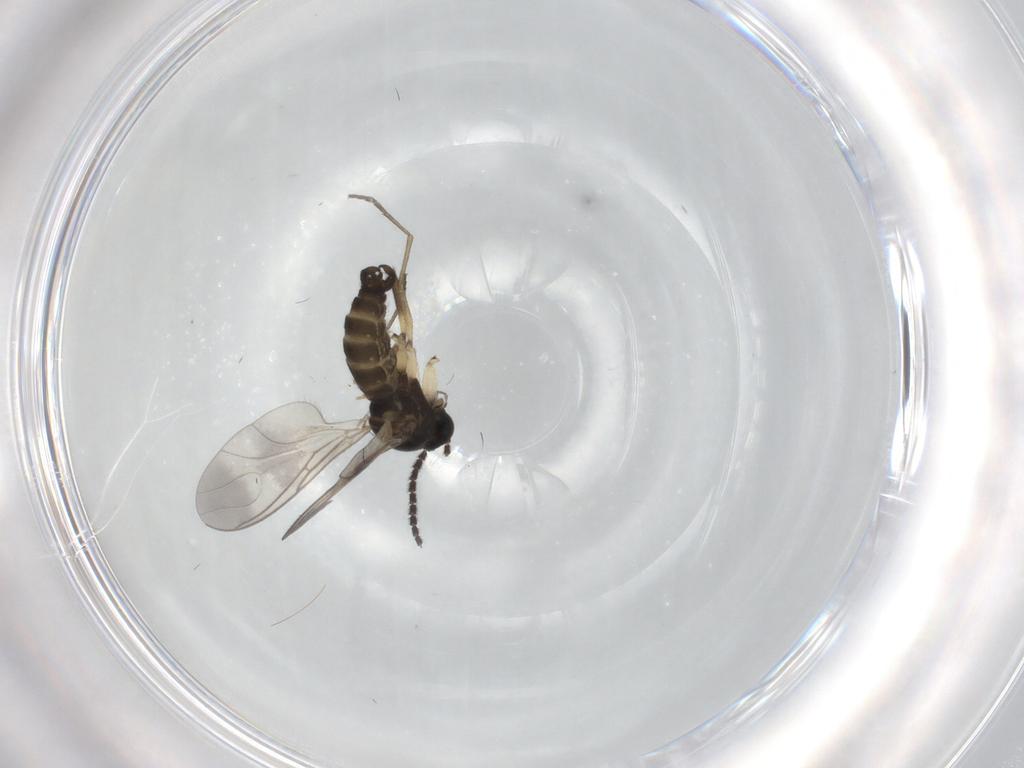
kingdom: Animalia
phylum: Arthropoda
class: Insecta
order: Diptera
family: Sciaridae
